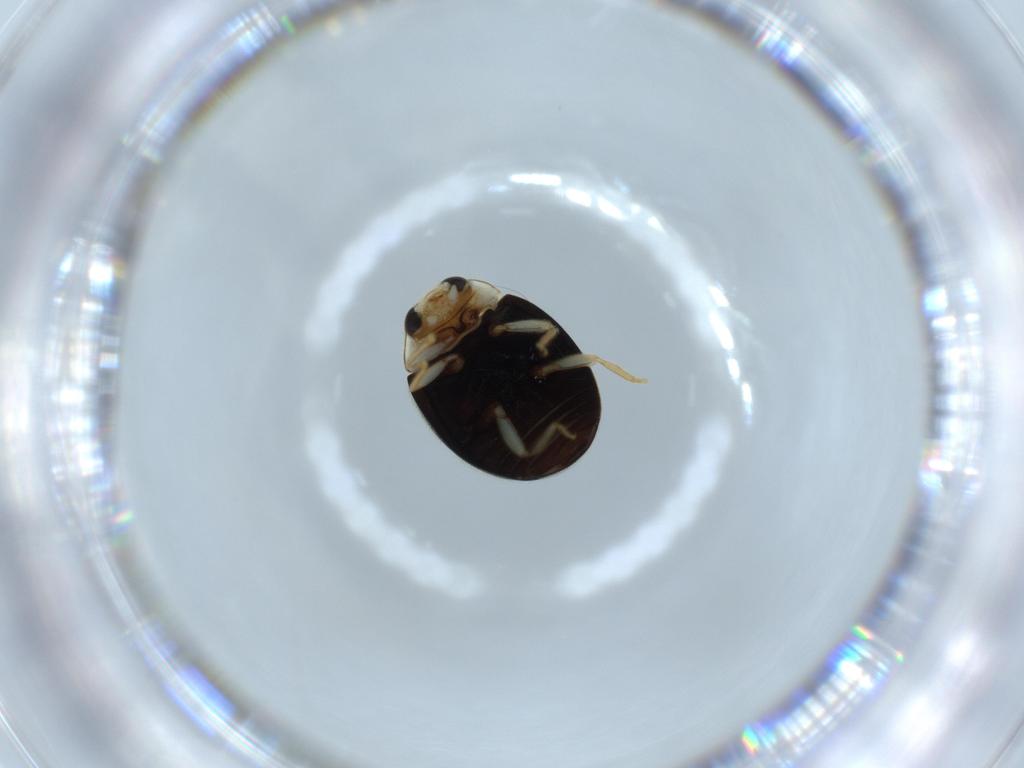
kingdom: Animalia
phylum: Arthropoda
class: Insecta
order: Coleoptera
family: Coccinellidae
